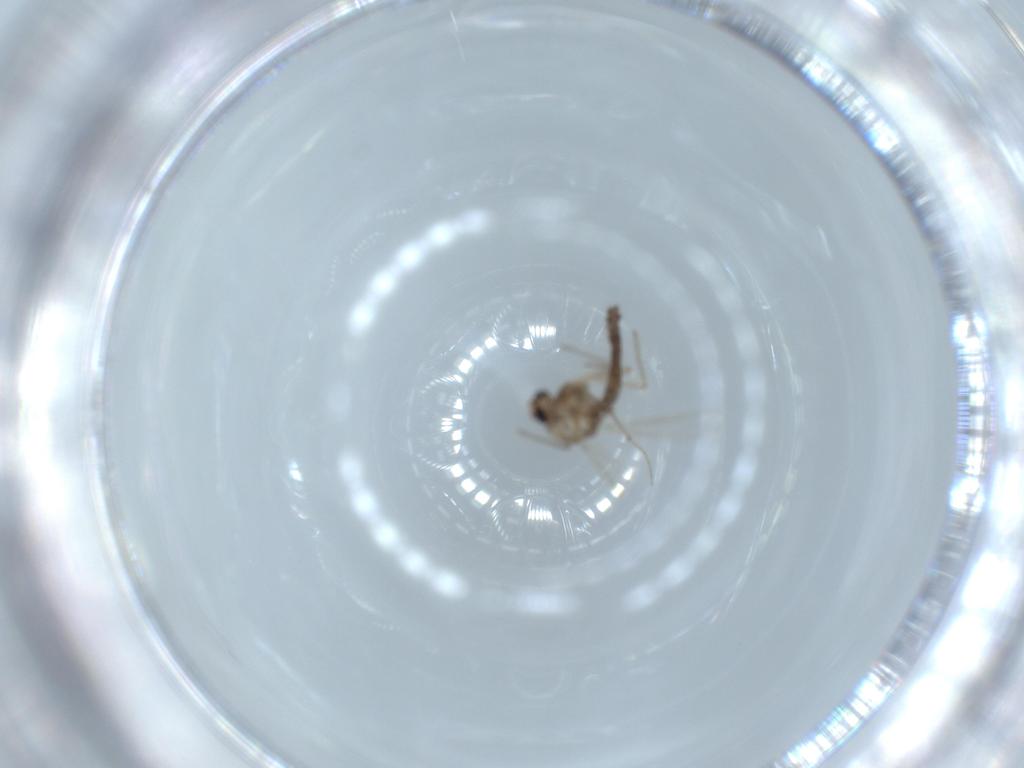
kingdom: Animalia
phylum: Arthropoda
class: Insecta
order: Diptera
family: Chironomidae
